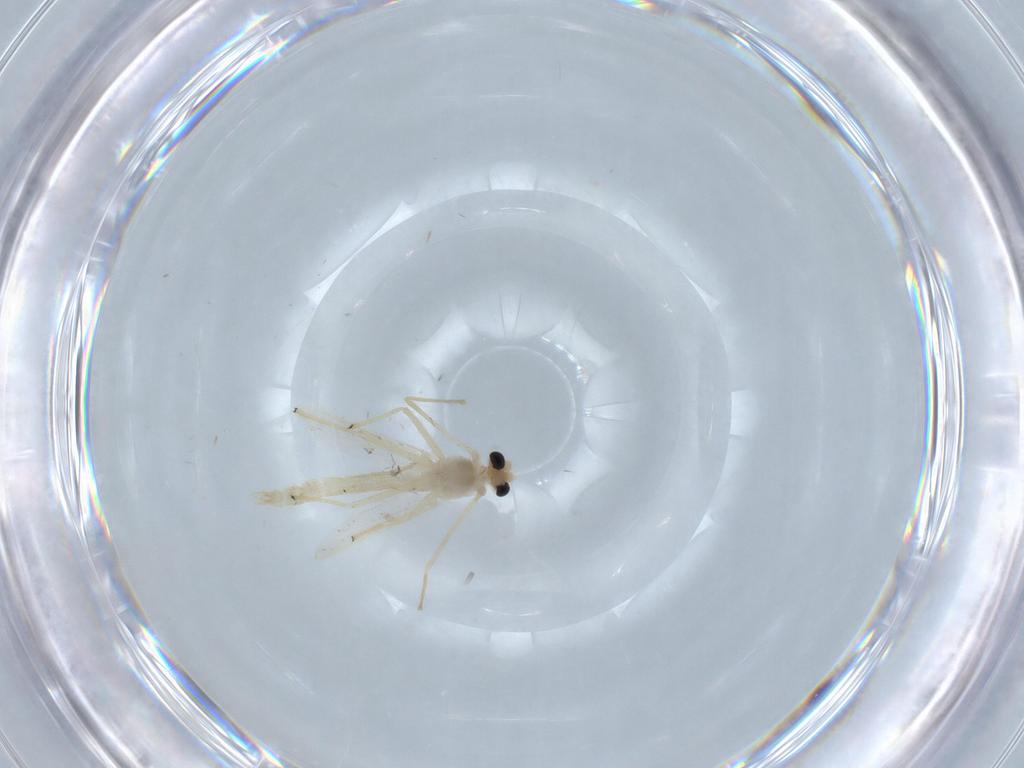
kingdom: Animalia
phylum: Arthropoda
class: Insecta
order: Diptera
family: Chironomidae
